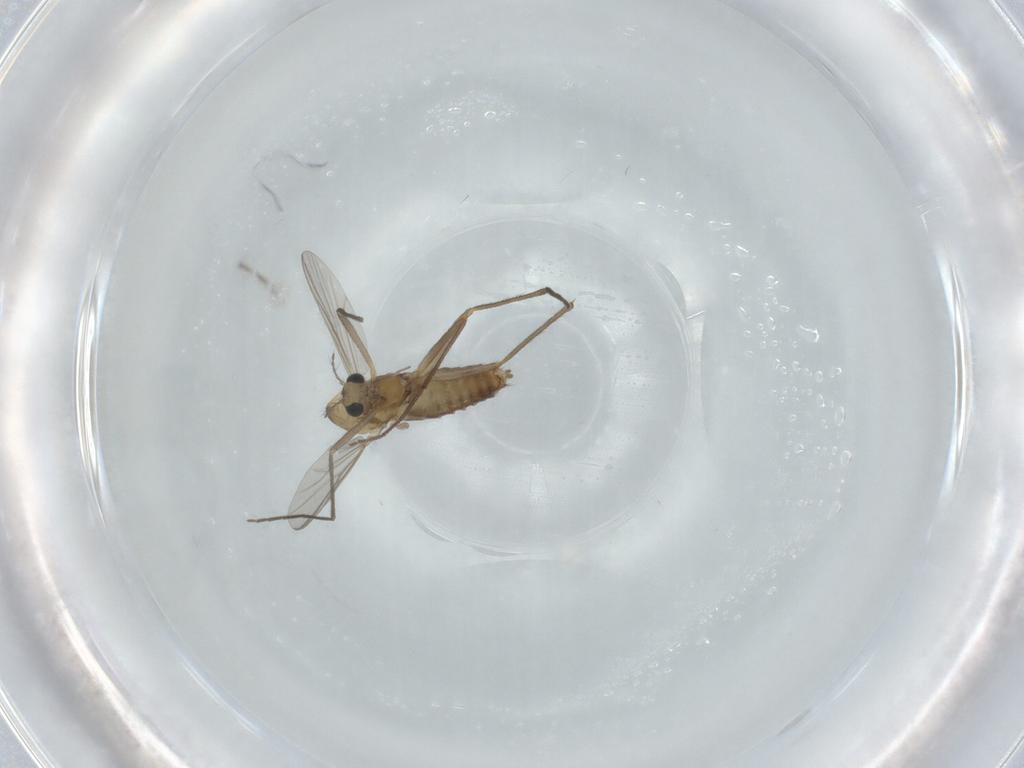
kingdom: Animalia
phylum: Arthropoda
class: Insecta
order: Diptera
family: Chironomidae
